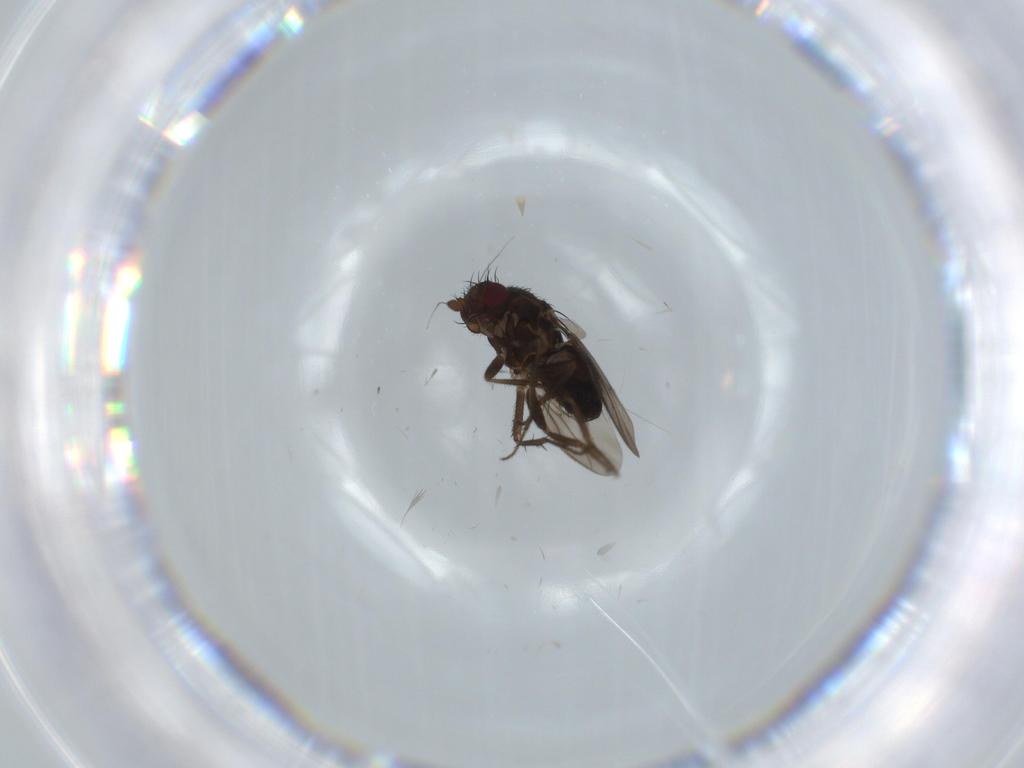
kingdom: Animalia
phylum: Arthropoda
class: Insecta
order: Diptera
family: Sphaeroceridae
